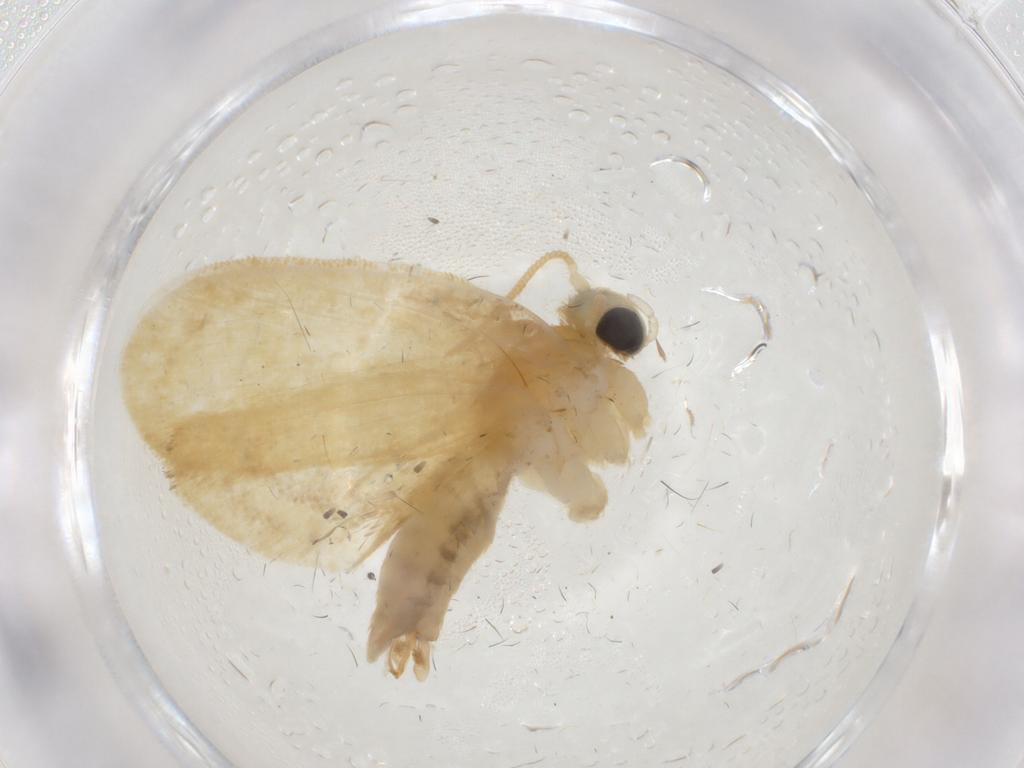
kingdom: Animalia
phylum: Arthropoda
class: Insecta
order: Lepidoptera
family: Psychidae
